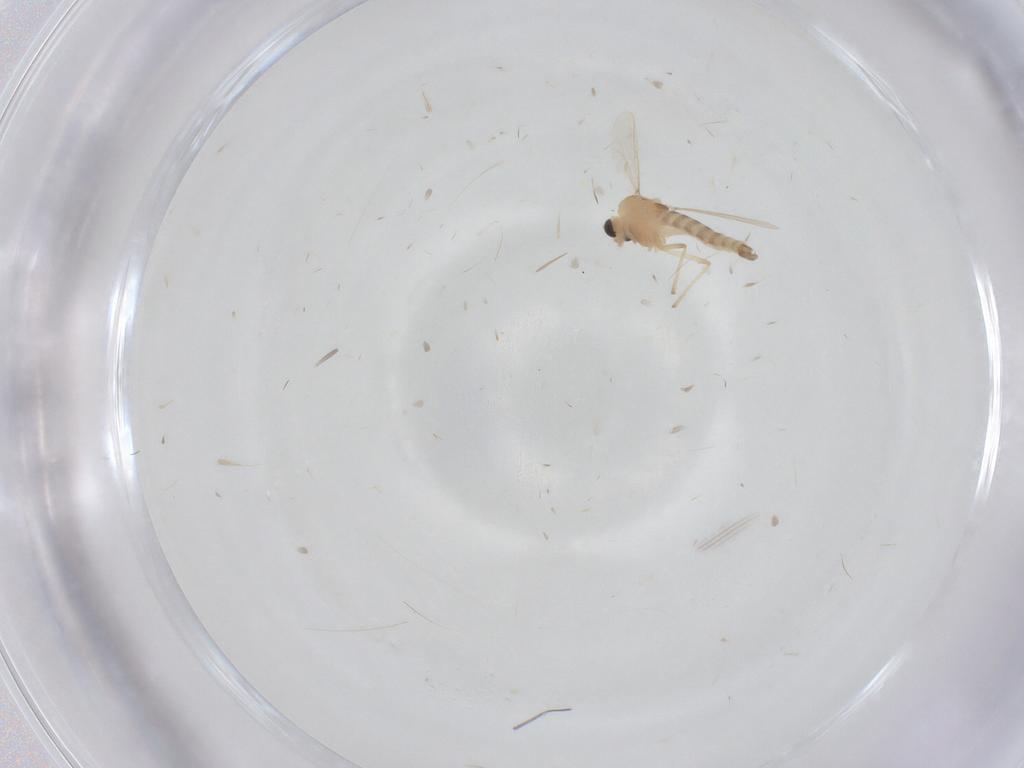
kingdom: Animalia
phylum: Arthropoda
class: Insecta
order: Diptera
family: Chironomidae
